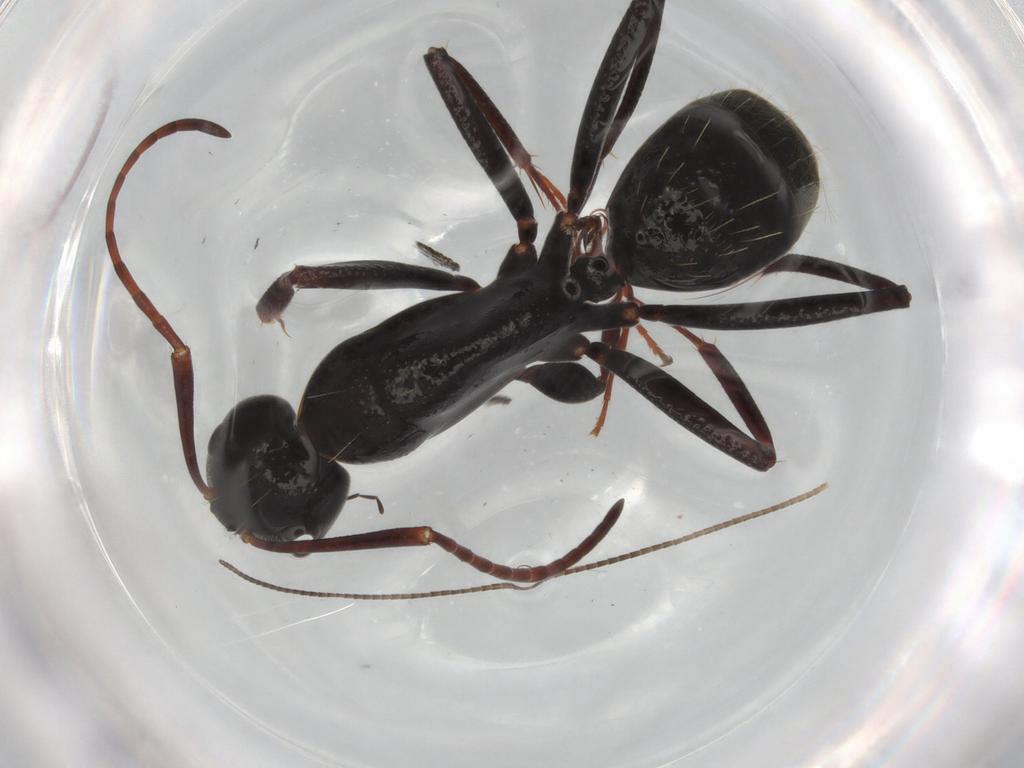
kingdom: Animalia
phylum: Arthropoda
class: Insecta
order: Hymenoptera
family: Formicidae
